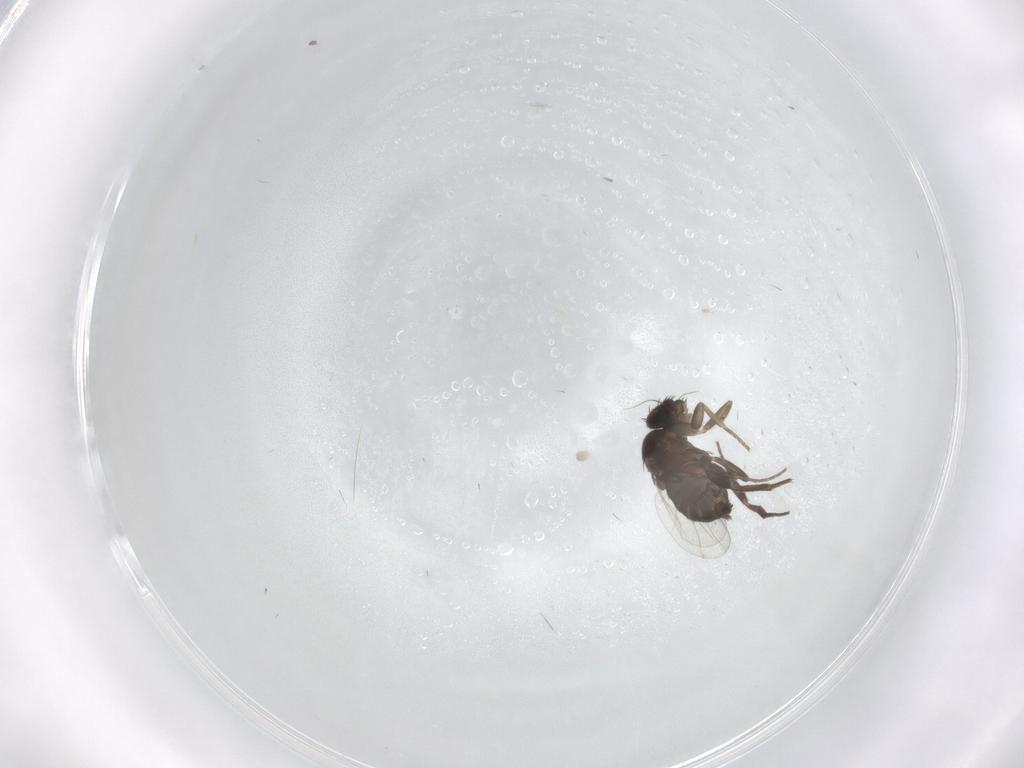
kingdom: Animalia
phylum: Arthropoda
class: Insecta
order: Diptera
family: Phoridae
